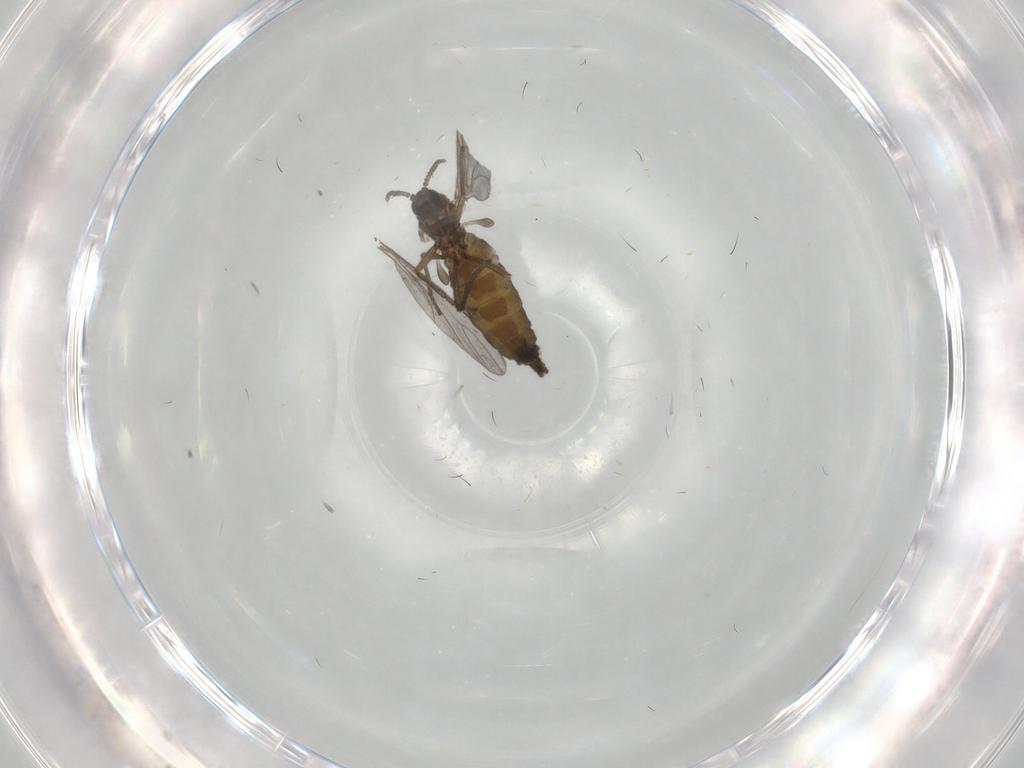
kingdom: Animalia
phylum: Arthropoda
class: Insecta
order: Diptera
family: Sciaridae
